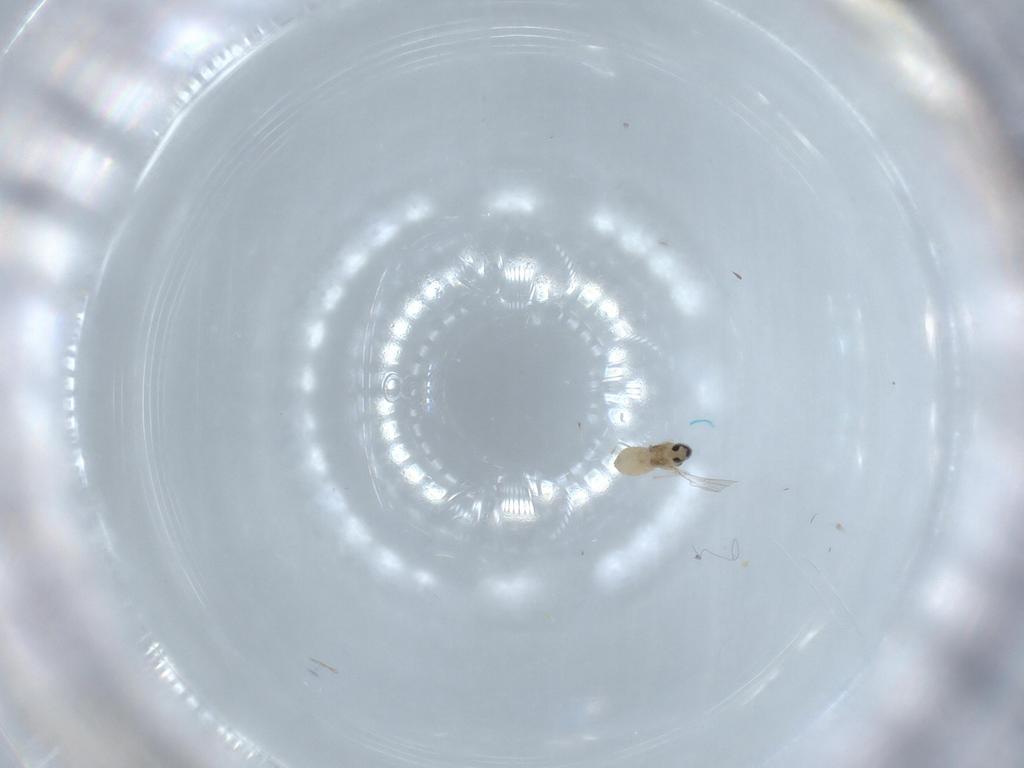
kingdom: Animalia
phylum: Arthropoda
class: Insecta
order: Diptera
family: Cecidomyiidae
